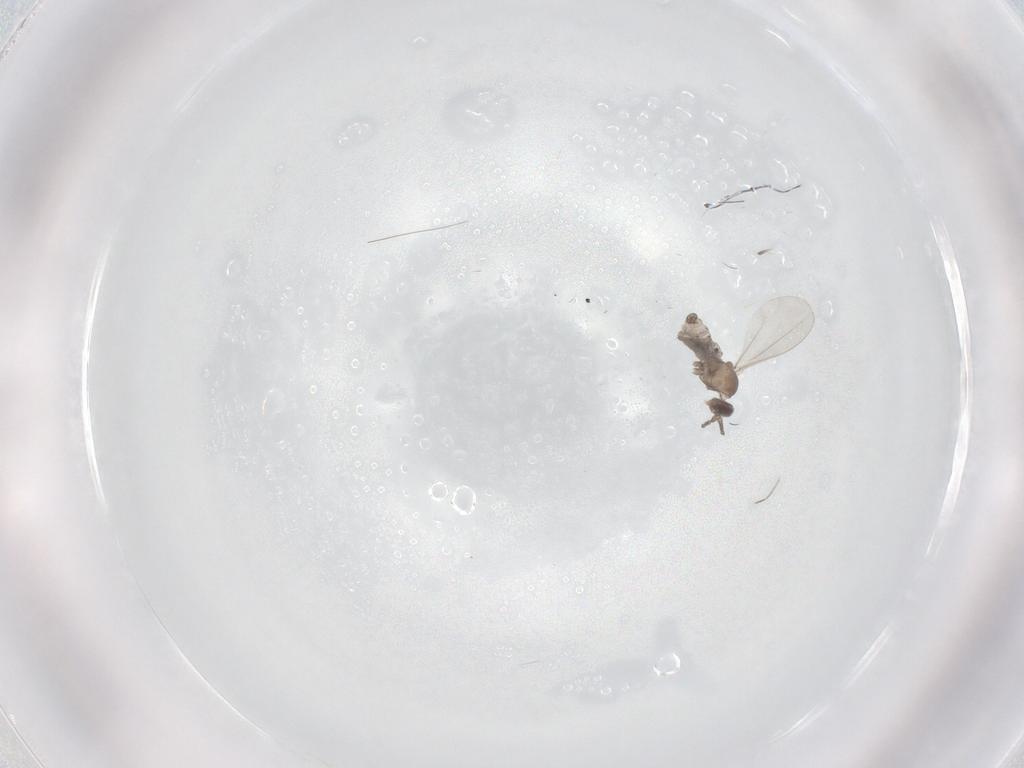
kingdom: Animalia
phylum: Arthropoda
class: Insecta
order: Diptera
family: Cecidomyiidae
